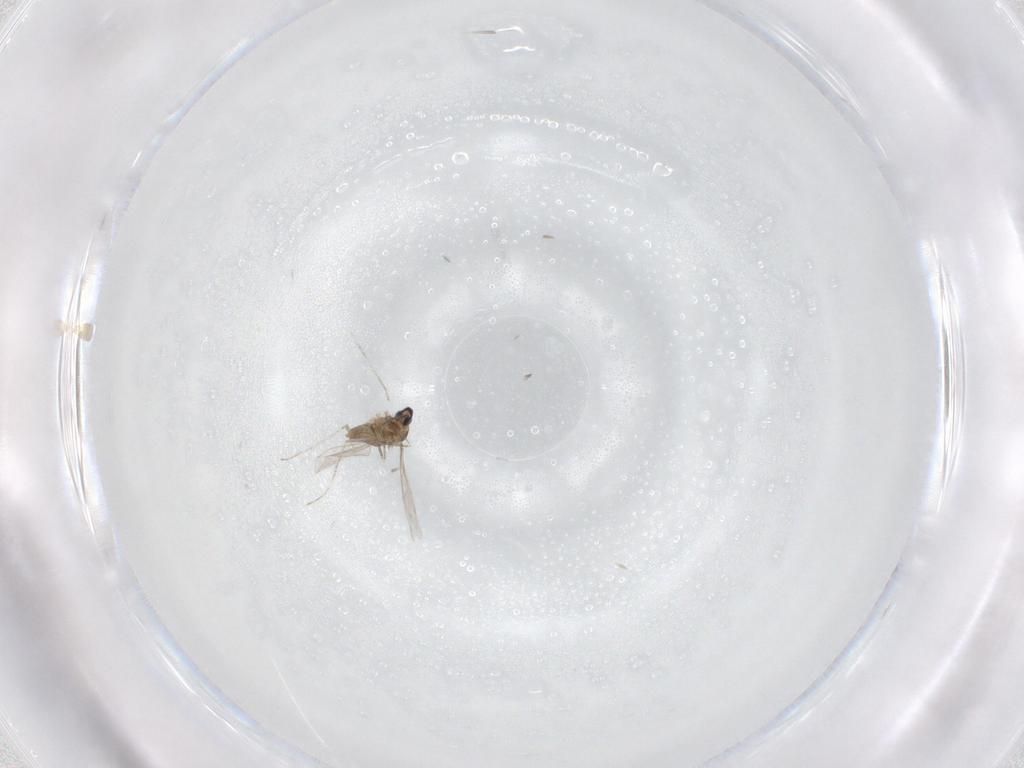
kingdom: Animalia
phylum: Arthropoda
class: Insecta
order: Diptera
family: Cecidomyiidae
